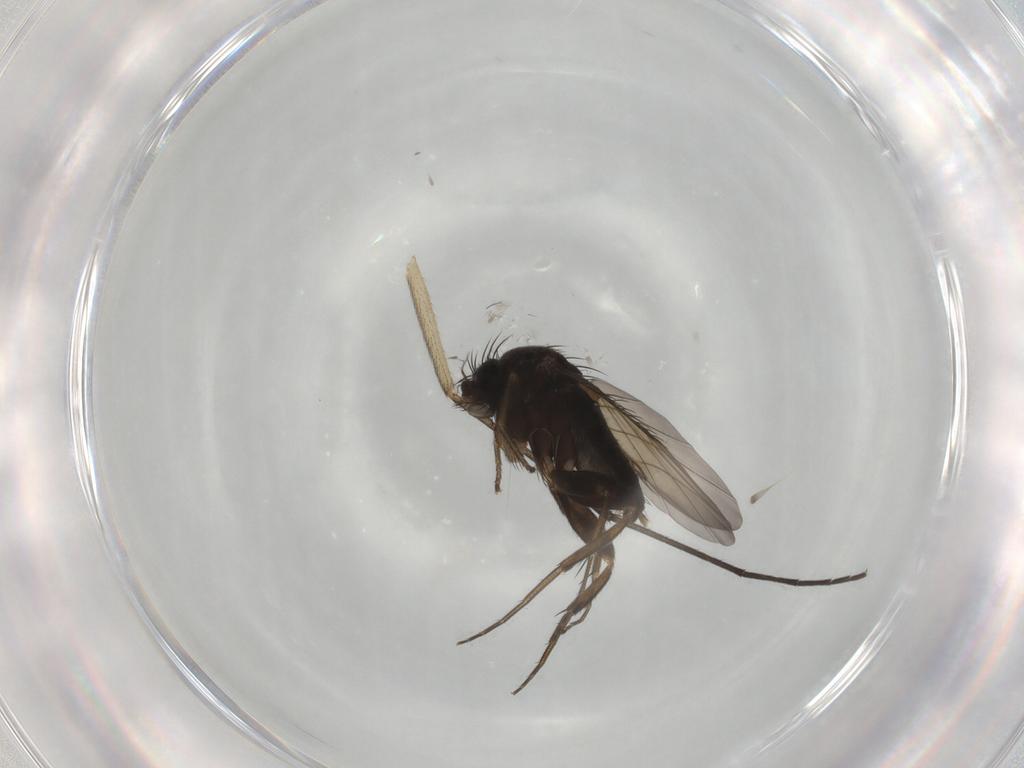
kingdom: Animalia
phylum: Arthropoda
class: Insecta
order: Diptera
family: Phoridae
